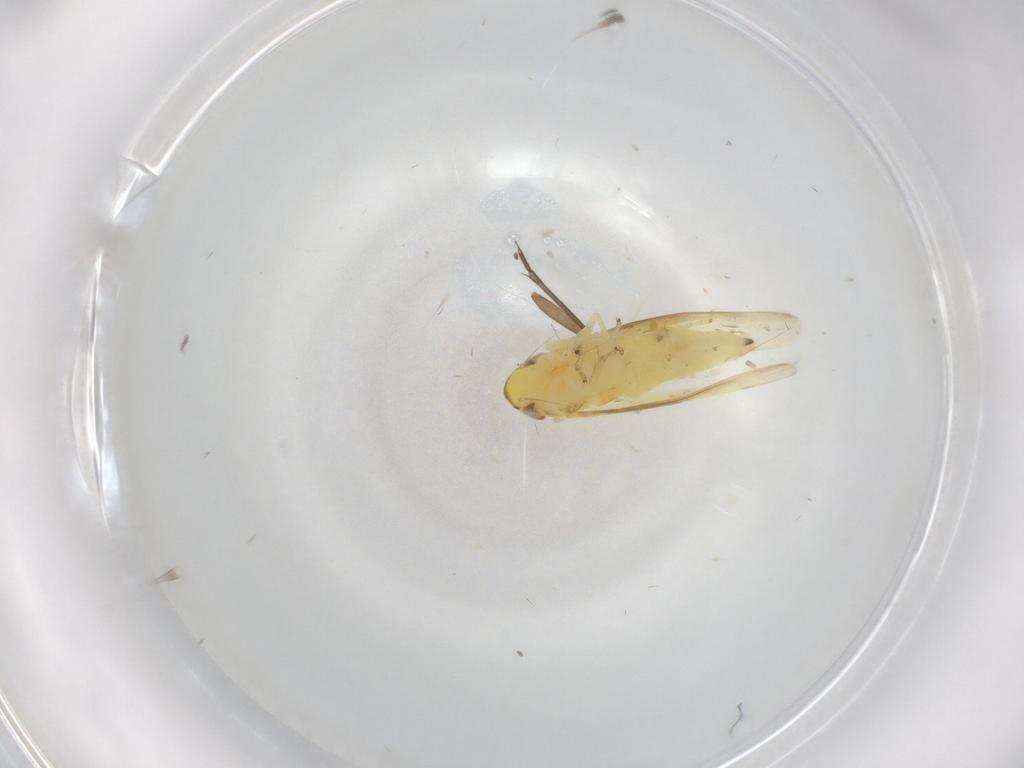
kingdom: Animalia
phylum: Arthropoda
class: Insecta
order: Hemiptera
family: Cicadellidae
